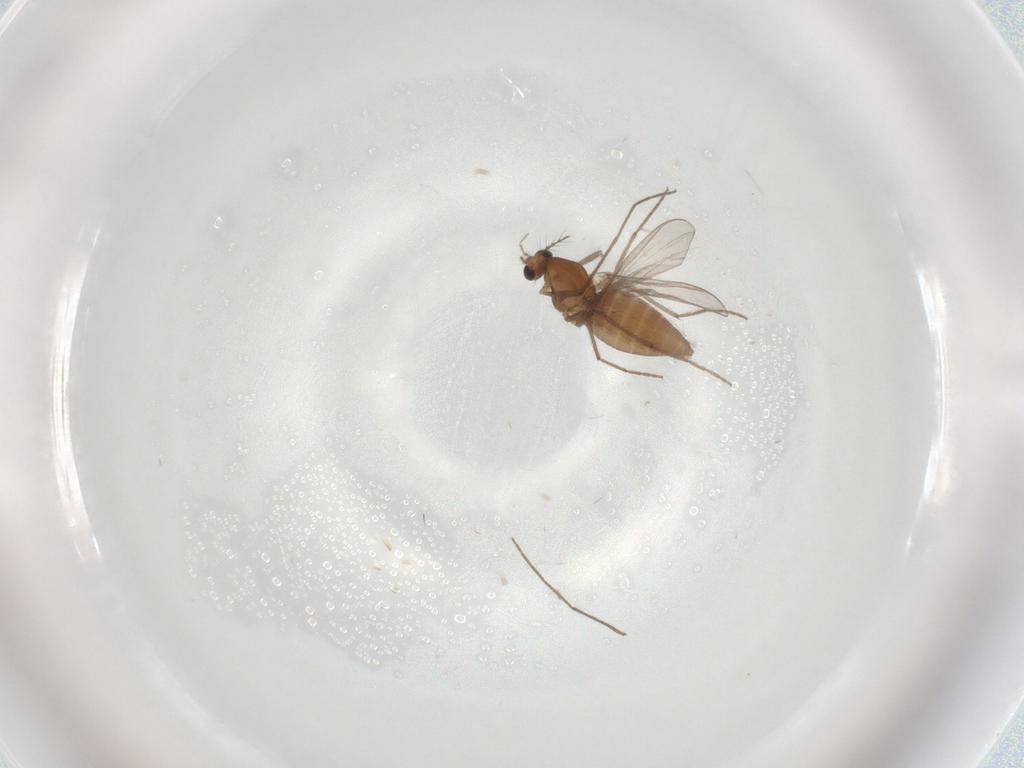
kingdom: Animalia
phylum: Arthropoda
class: Insecta
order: Diptera
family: Chironomidae
